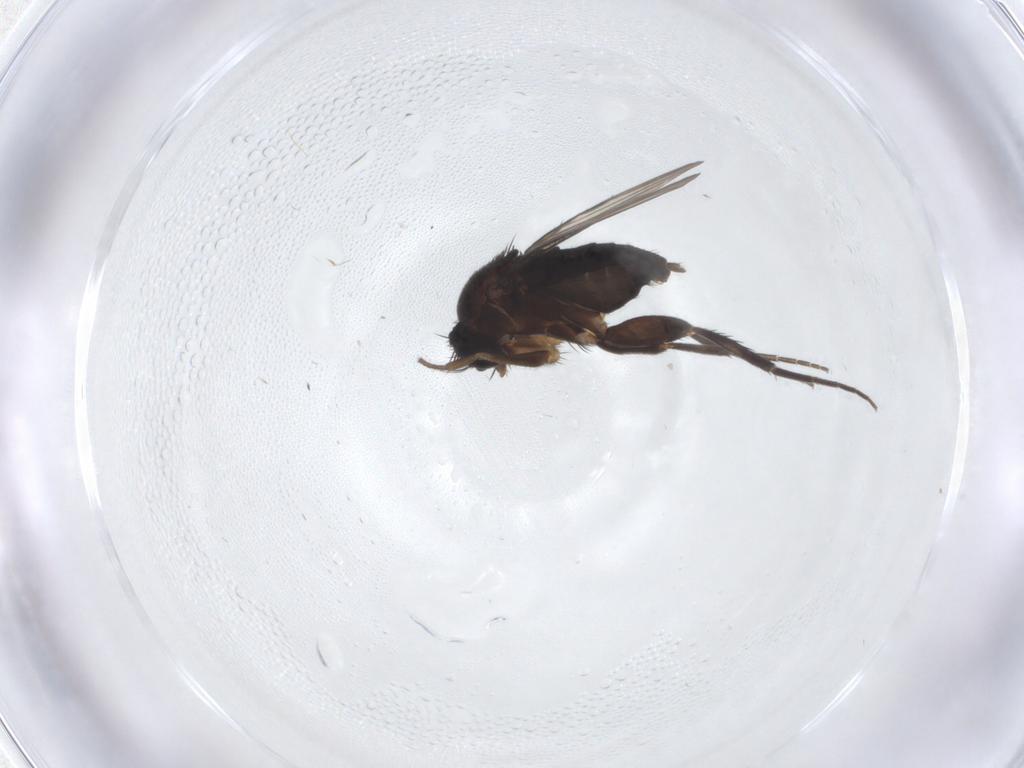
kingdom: Animalia
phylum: Arthropoda
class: Insecta
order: Diptera
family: Phoridae
